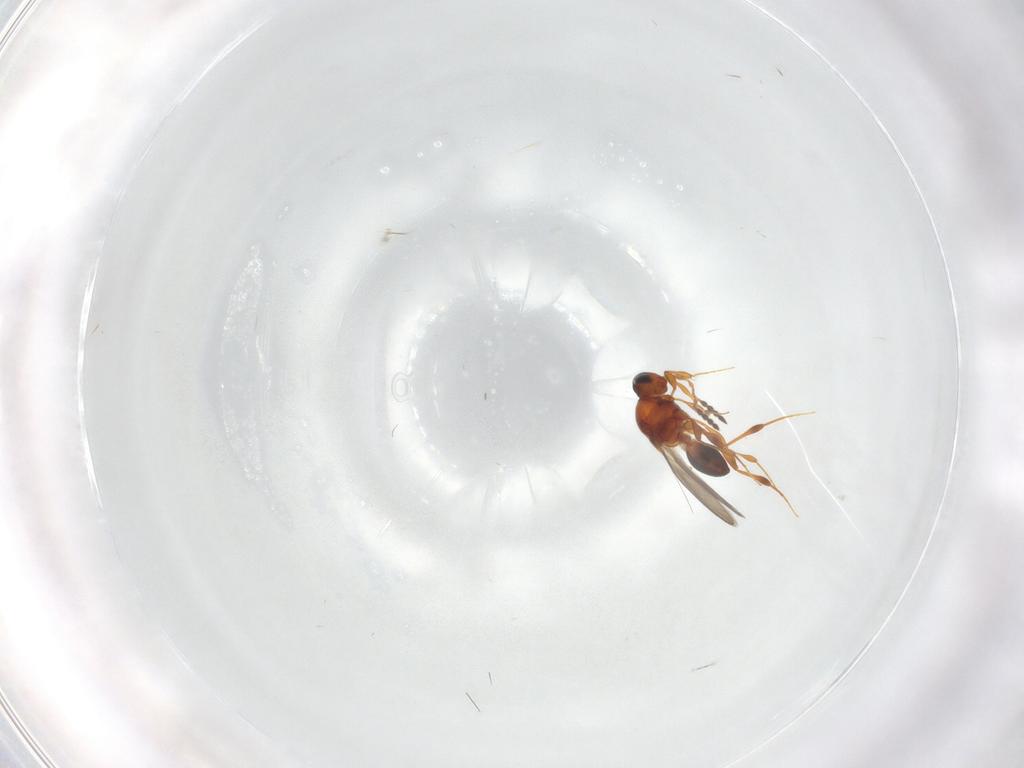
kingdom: Animalia
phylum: Arthropoda
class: Insecta
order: Hymenoptera
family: Platygastridae
